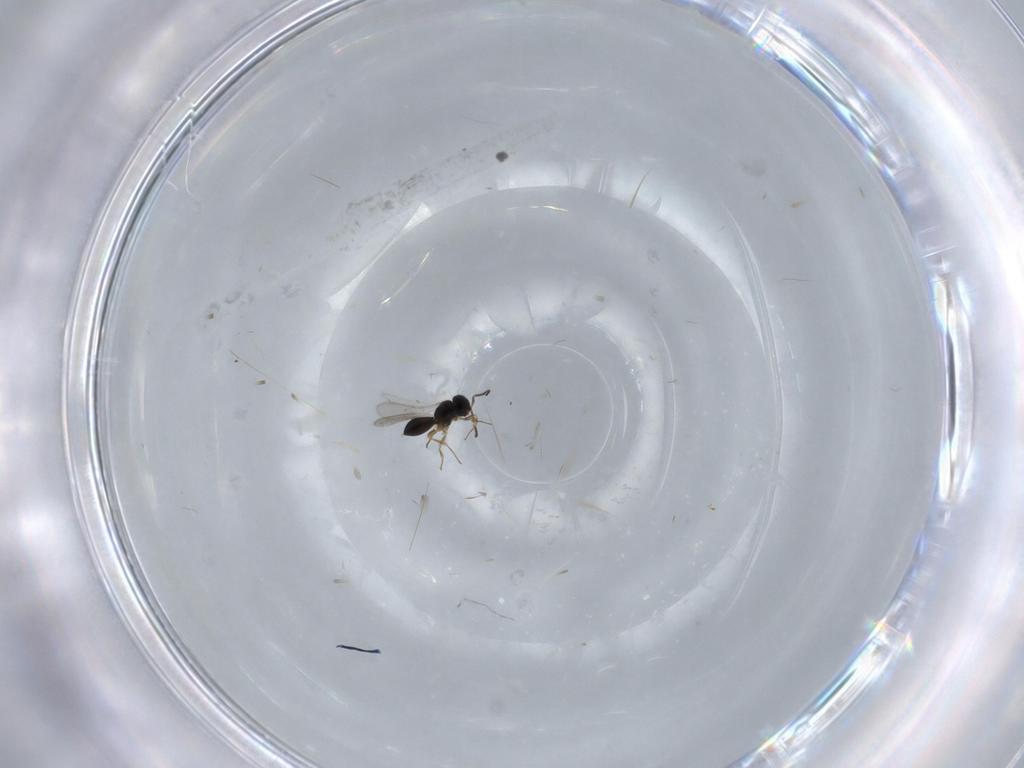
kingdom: Animalia
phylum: Arthropoda
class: Insecta
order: Hymenoptera
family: Scelionidae
